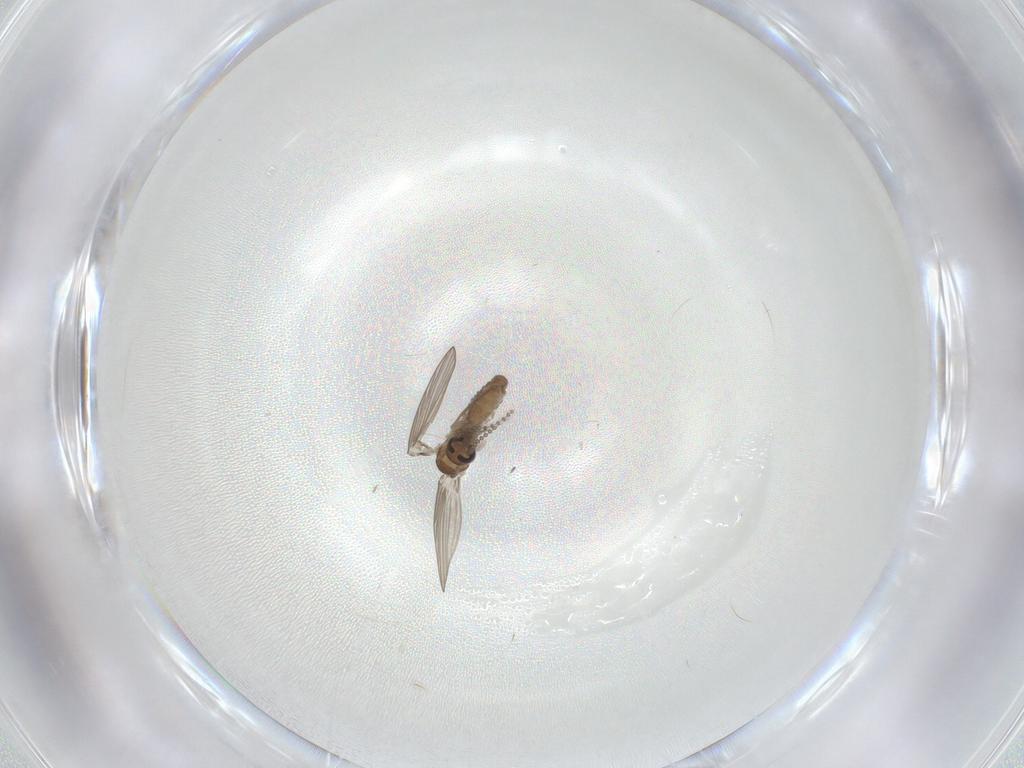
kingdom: Animalia
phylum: Arthropoda
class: Insecta
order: Diptera
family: Psychodidae
